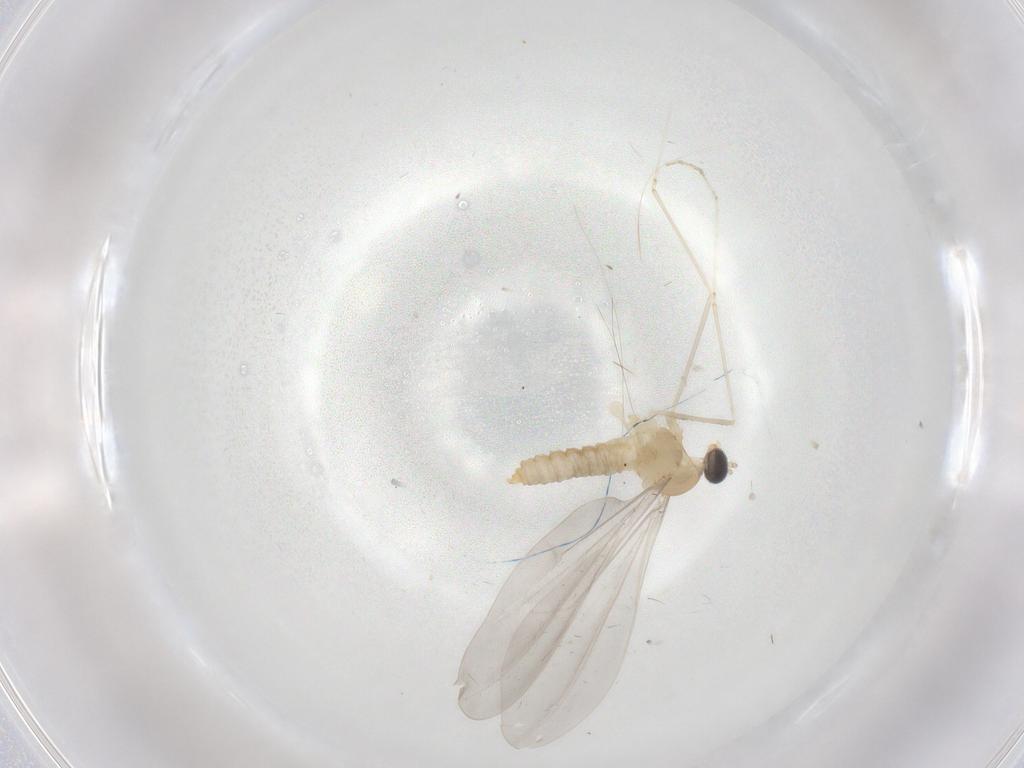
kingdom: Animalia
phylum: Arthropoda
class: Insecta
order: Diptera
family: Cecidomyiidae
